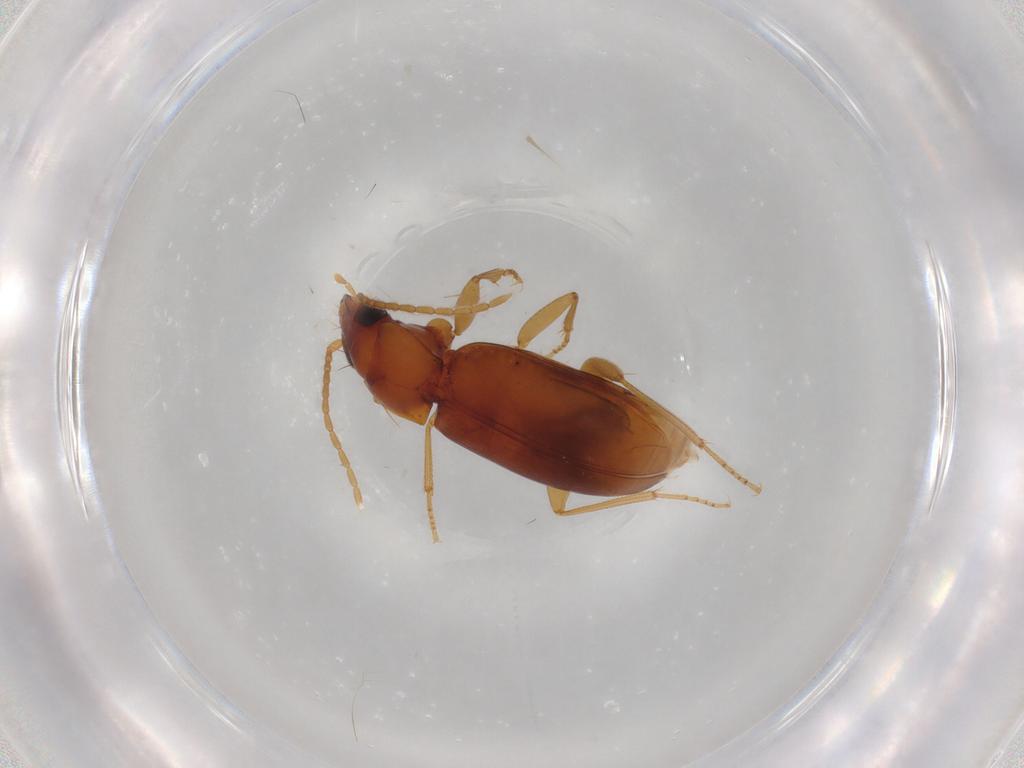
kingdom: Animalia
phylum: Arthropoda
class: Insecta
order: Coleoptera
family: Carabidae
